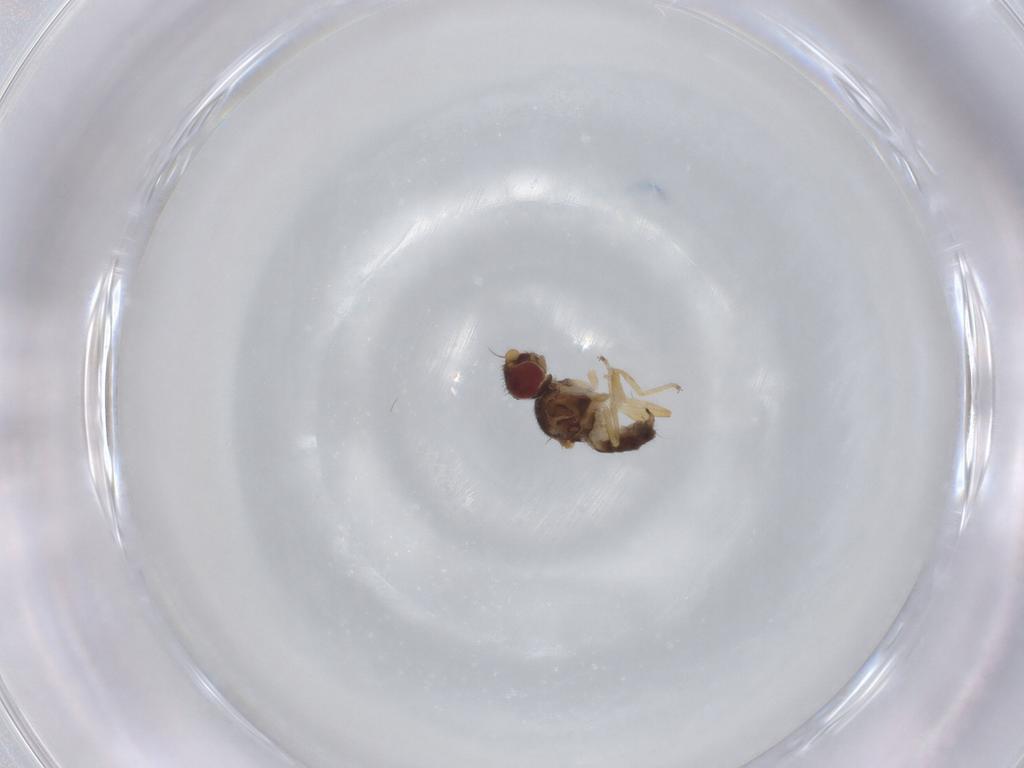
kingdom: Animalia
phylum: Arthropoda
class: Insecta
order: Diptera
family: Chloropidae
